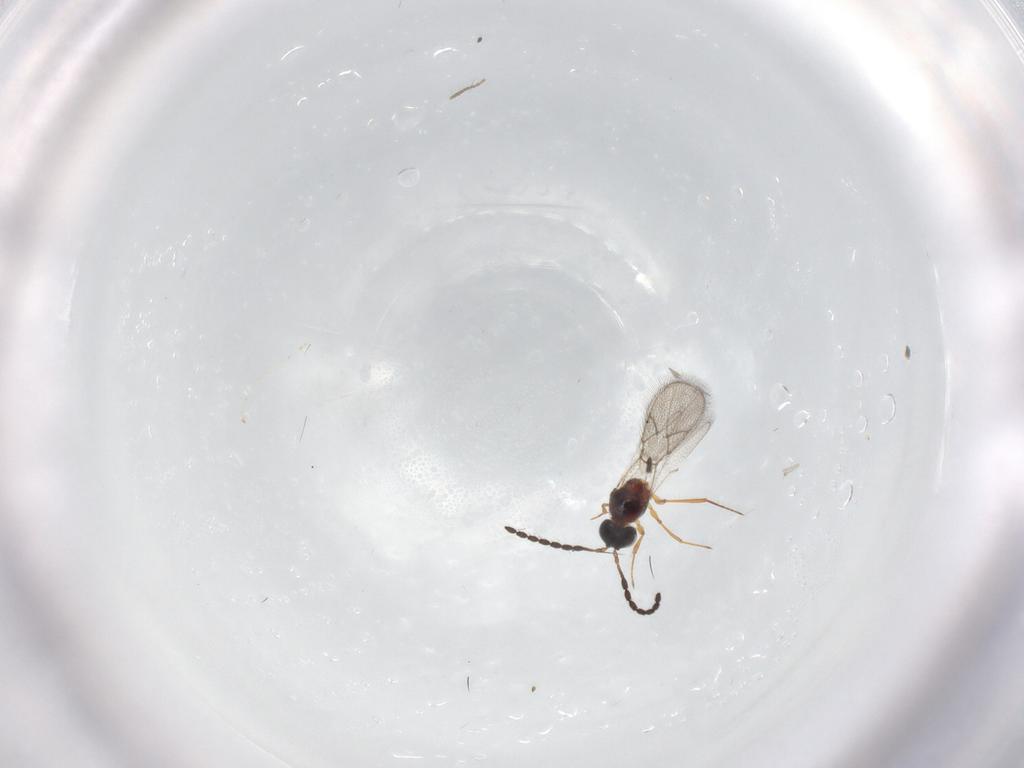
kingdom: Animalia
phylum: Arthropoda
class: Insecta
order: Hymenoptera
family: Figitidae
